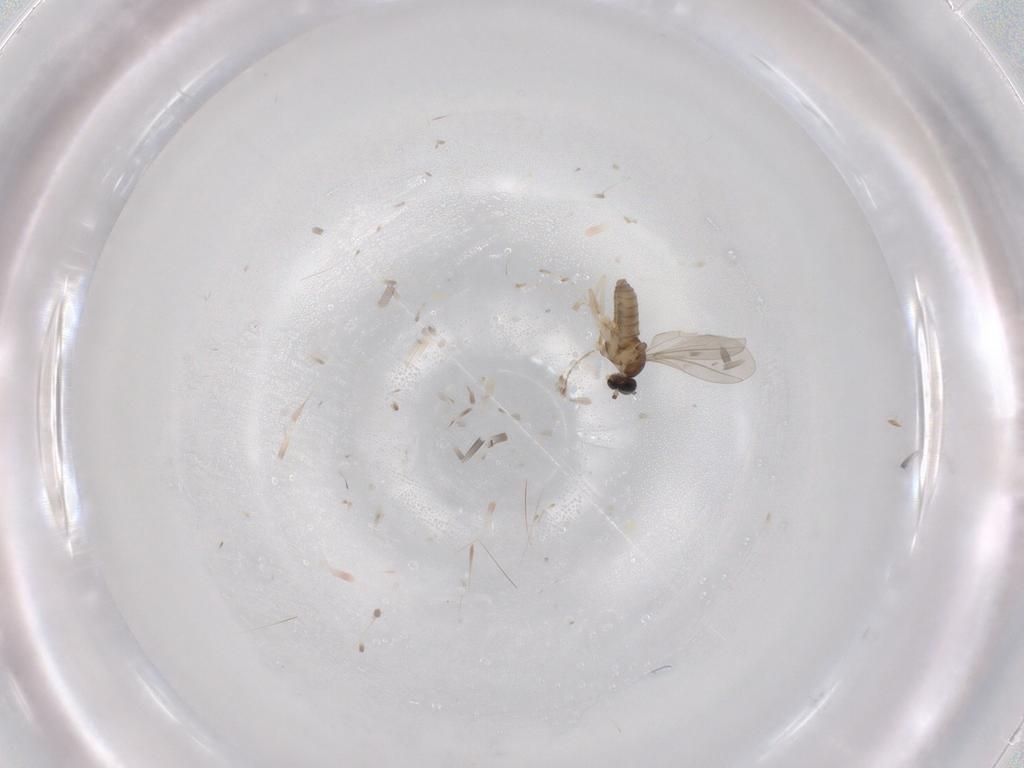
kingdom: Animalia
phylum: Arthropoda
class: Insecta
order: Diptera
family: Cecidomyiidae
